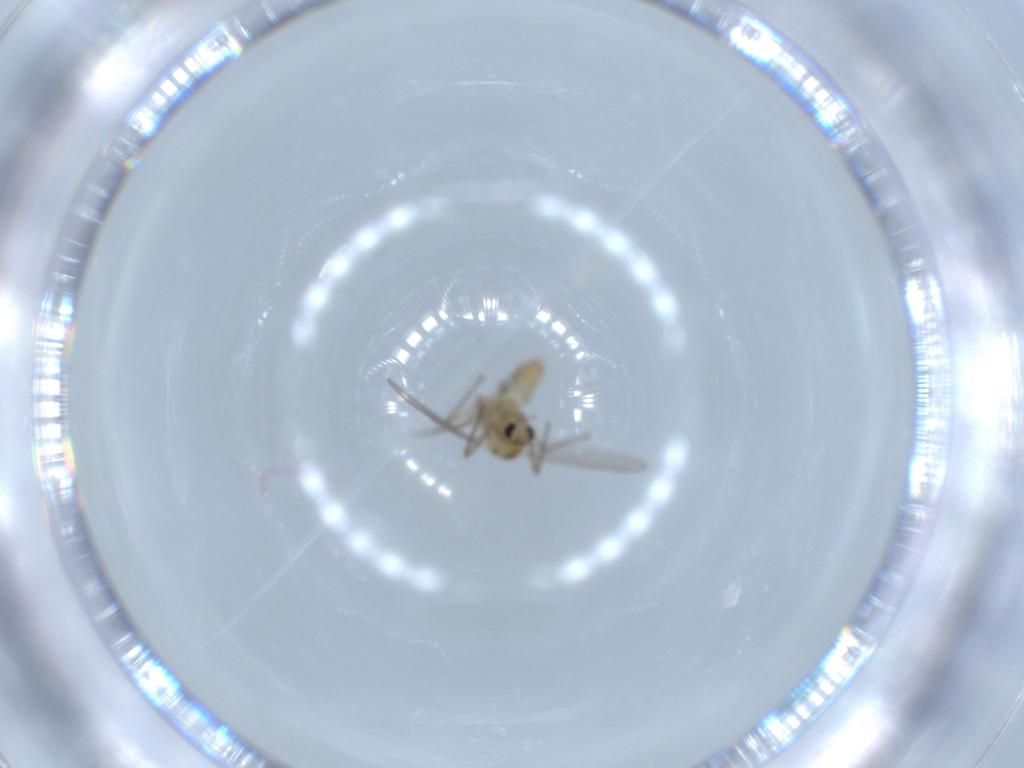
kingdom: Animalia
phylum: Arthropoda
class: Insecta
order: Diptera
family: Chironomidae
